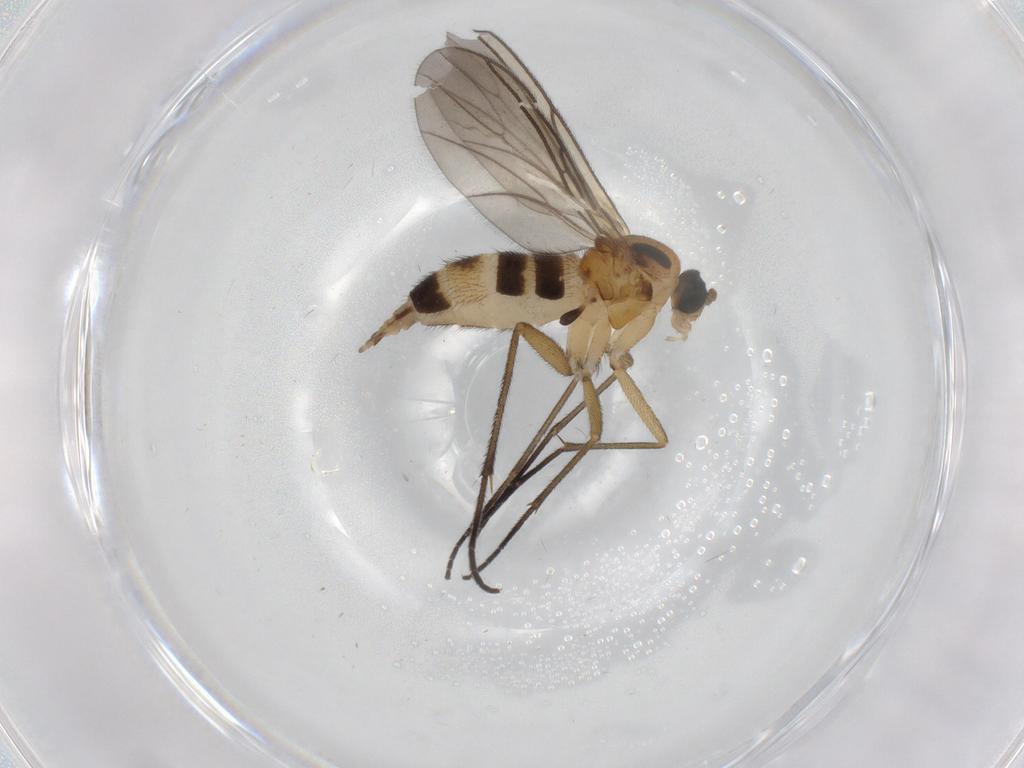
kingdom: Animalia
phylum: Arthropoda
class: Insecta
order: Diptera
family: Sciaridae
